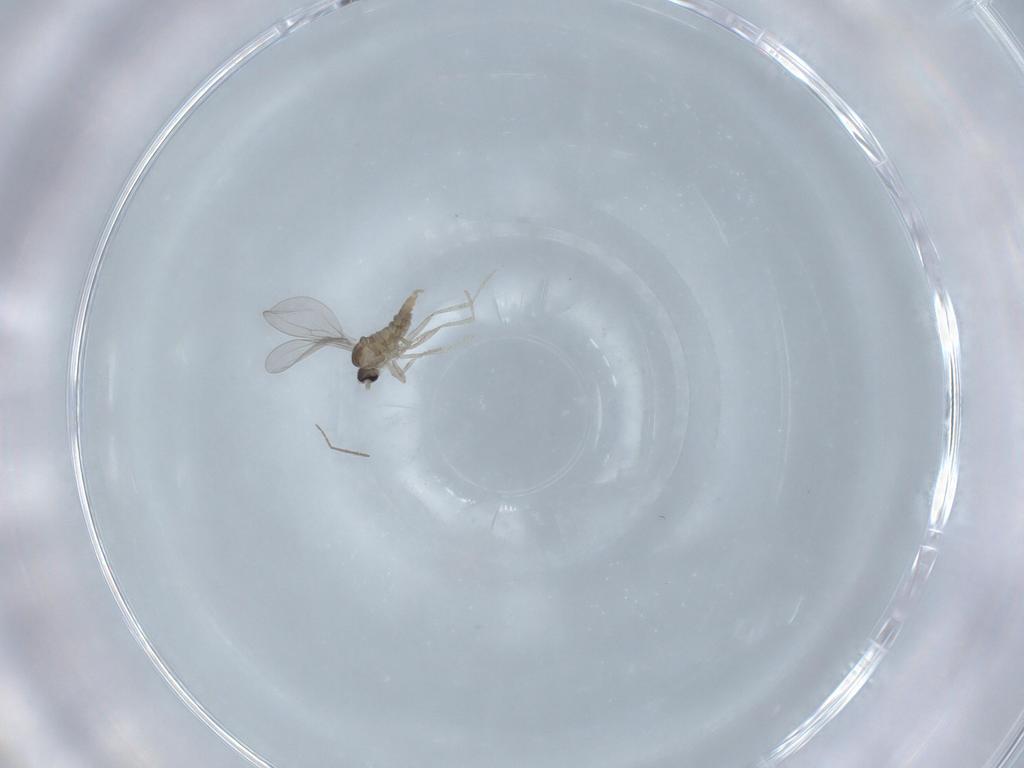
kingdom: Animalia
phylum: Arthropoda
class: Insecta
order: Diptera
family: Cecidomyiidae
